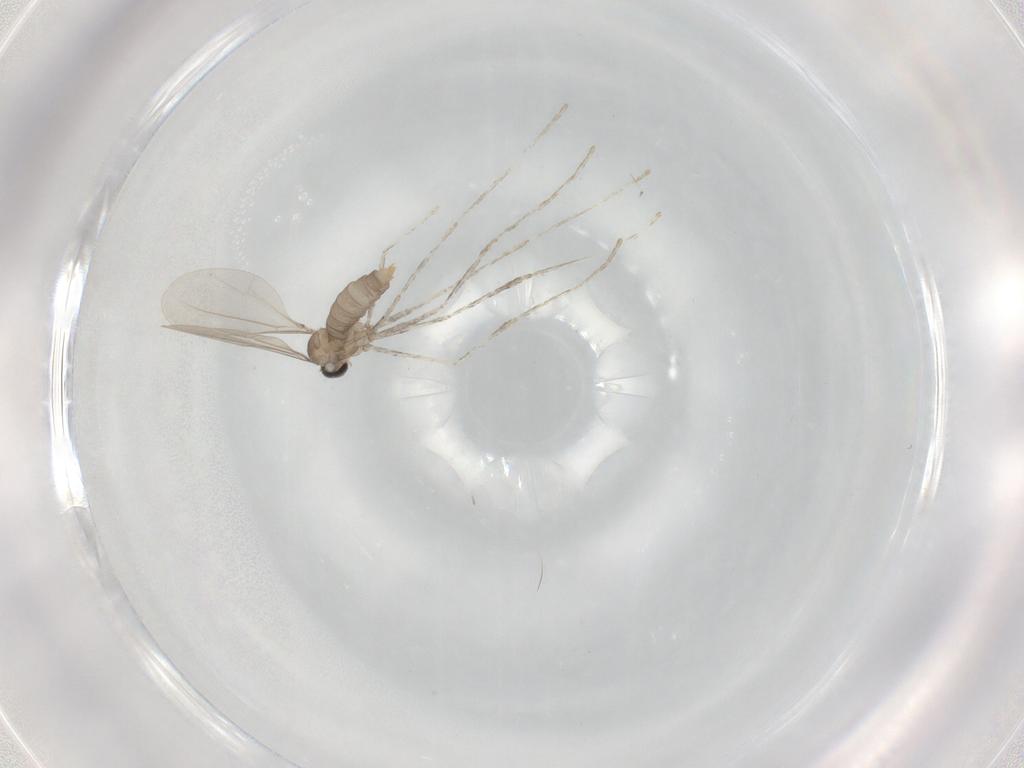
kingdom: Animalia
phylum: Arthropoda
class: Insecta
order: Diptera
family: Cecidomyiidae
